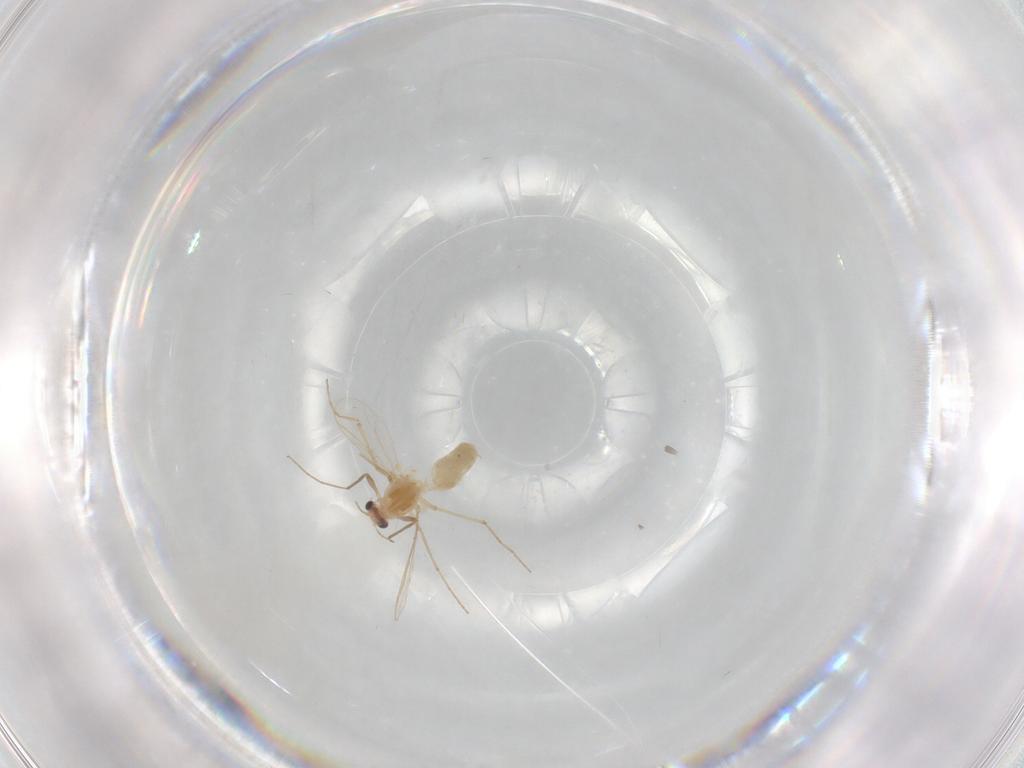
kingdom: Animalia
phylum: Arthropoda
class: Insecta
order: Diptera
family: Chironomidae
